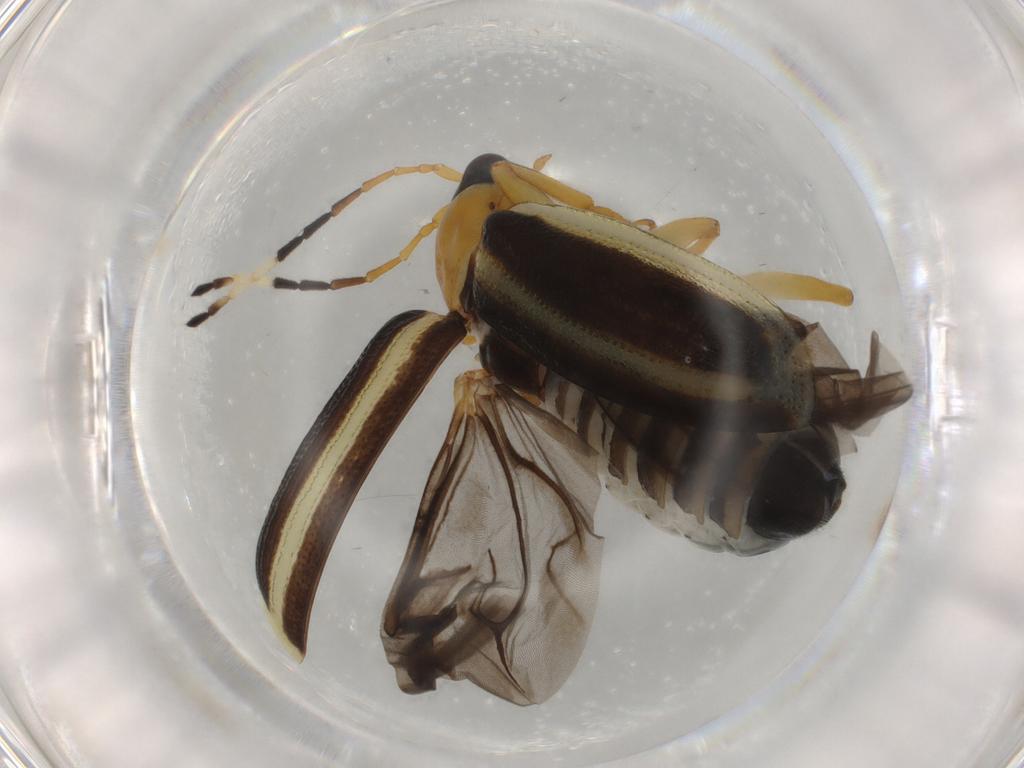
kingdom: Animalia
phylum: Arthropoda
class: Insecta
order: Coleoptera
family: Chrysomelidae
